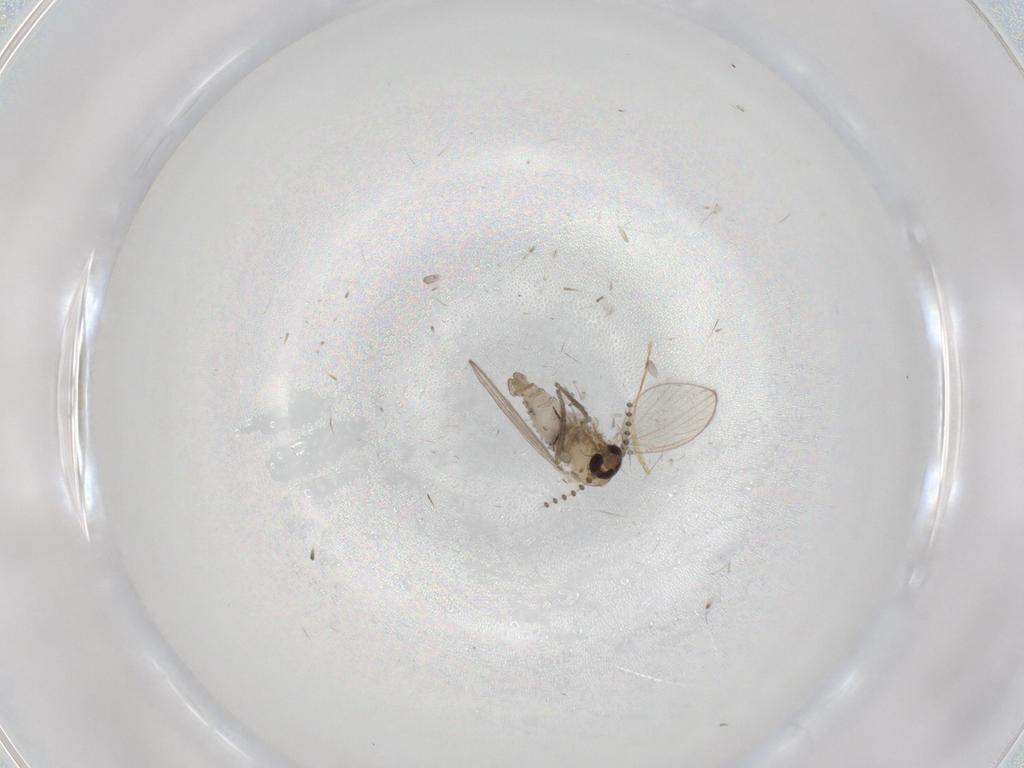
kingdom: Animalia
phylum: Arthropoda
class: Insecta
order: Diptera
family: Psychodidae
